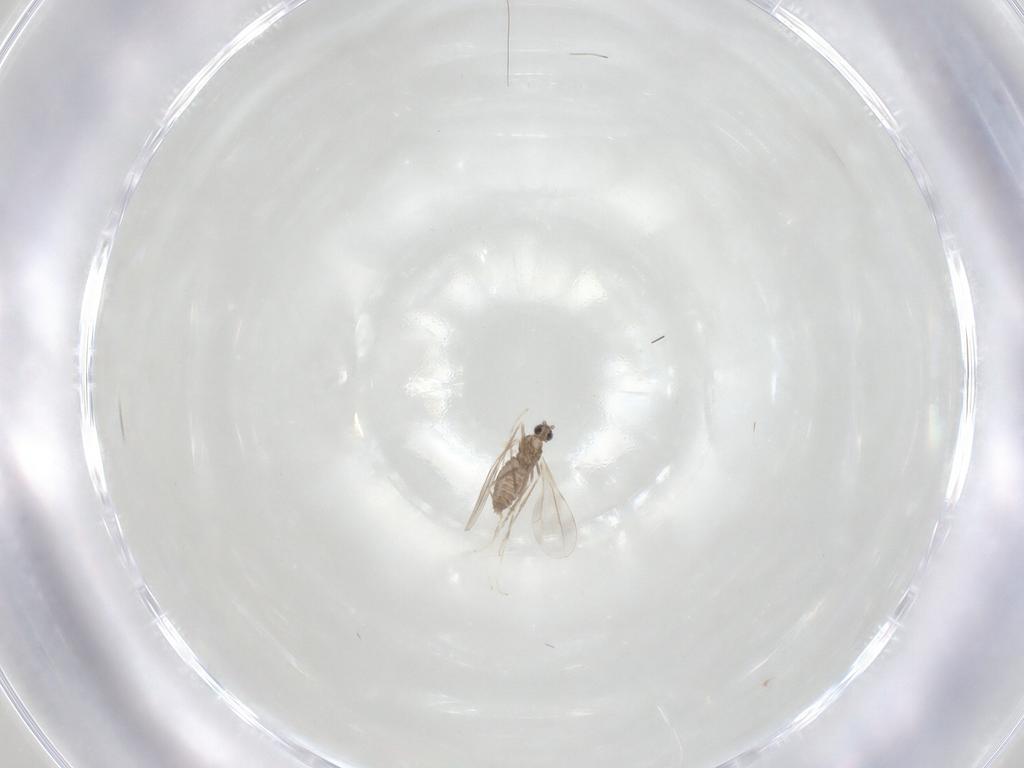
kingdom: Animalia
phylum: Arthropoda
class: Insecta
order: Diptera
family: Cecidomyiidae
